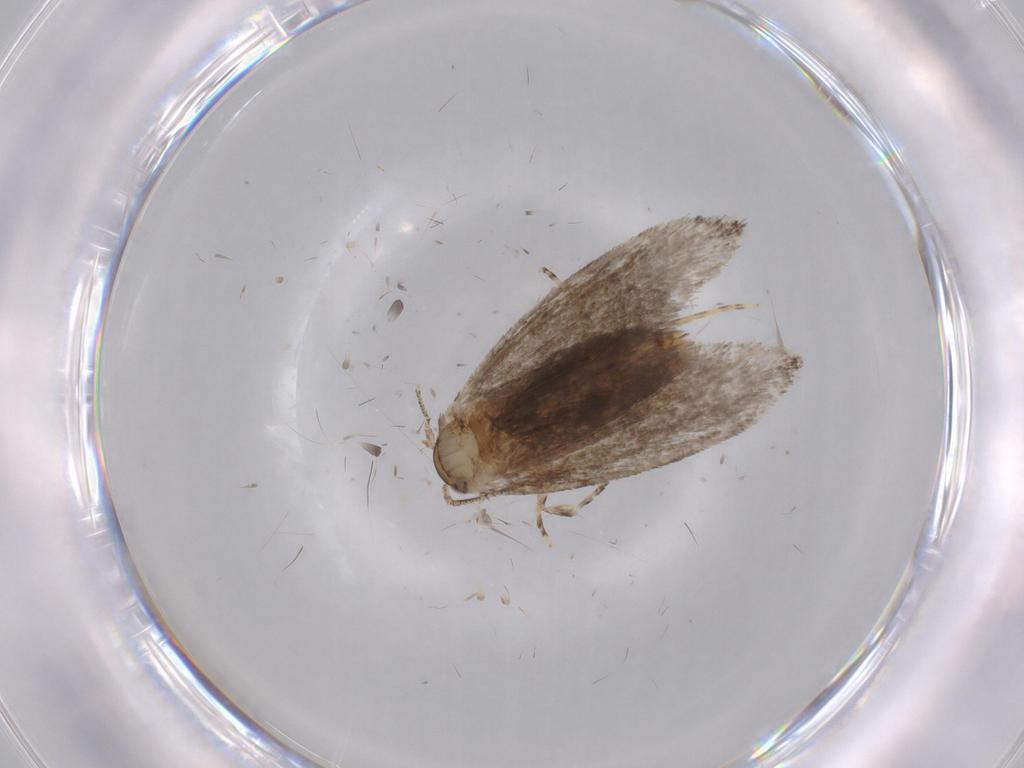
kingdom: Animalia
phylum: Arthropoda
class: Insecta
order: Lepidoptera
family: Tineidae
